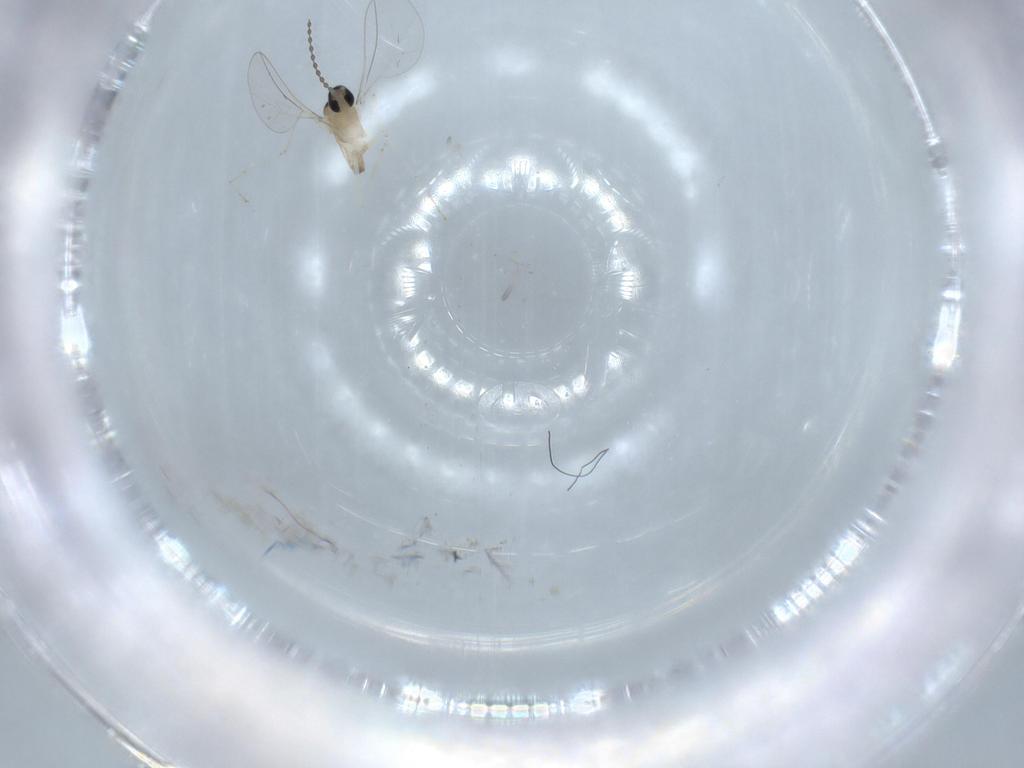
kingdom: Animalia
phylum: Arthropoda
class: Insecta
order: Diptera
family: Cecidomyiidae
